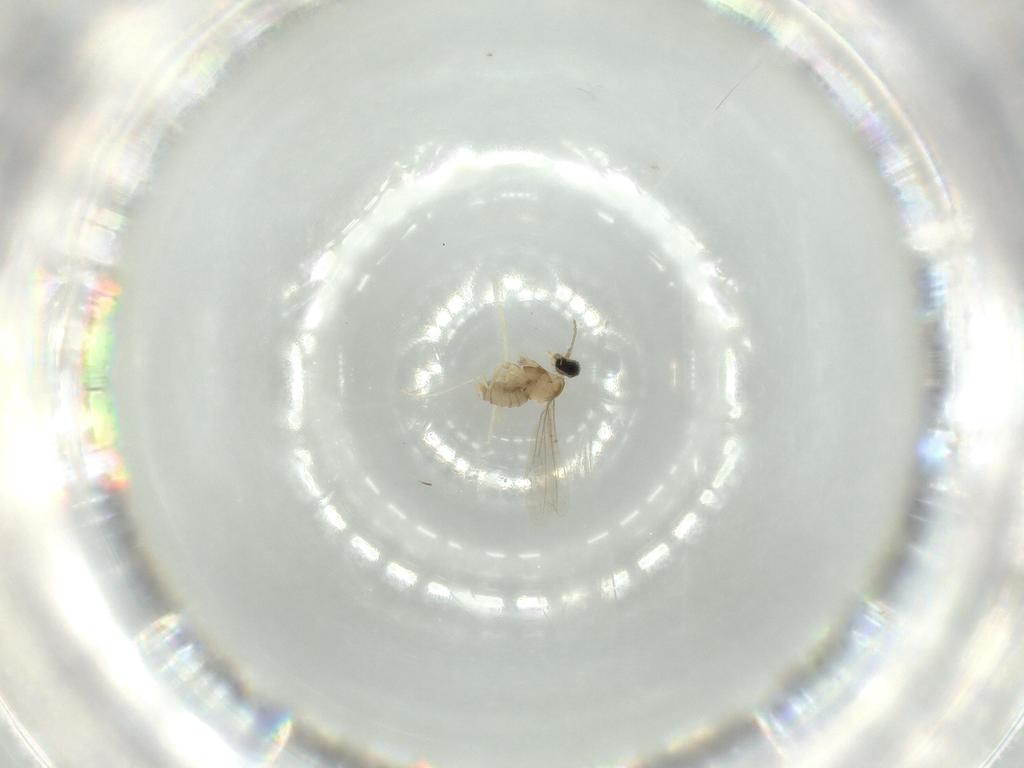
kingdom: Animalia
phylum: Arthropoda
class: Insecta
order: Diptera
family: Sciaridae
